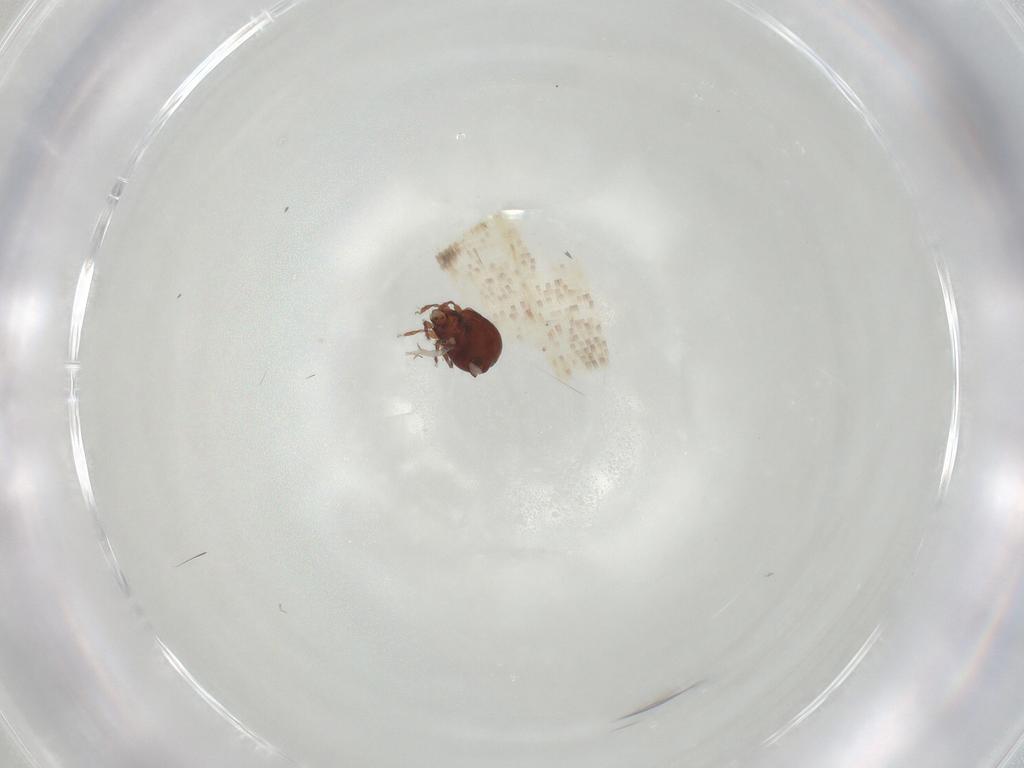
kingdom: Animalia
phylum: Arthropoda
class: Arachnida
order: Sarcoptiformes
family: Humerobatidae
